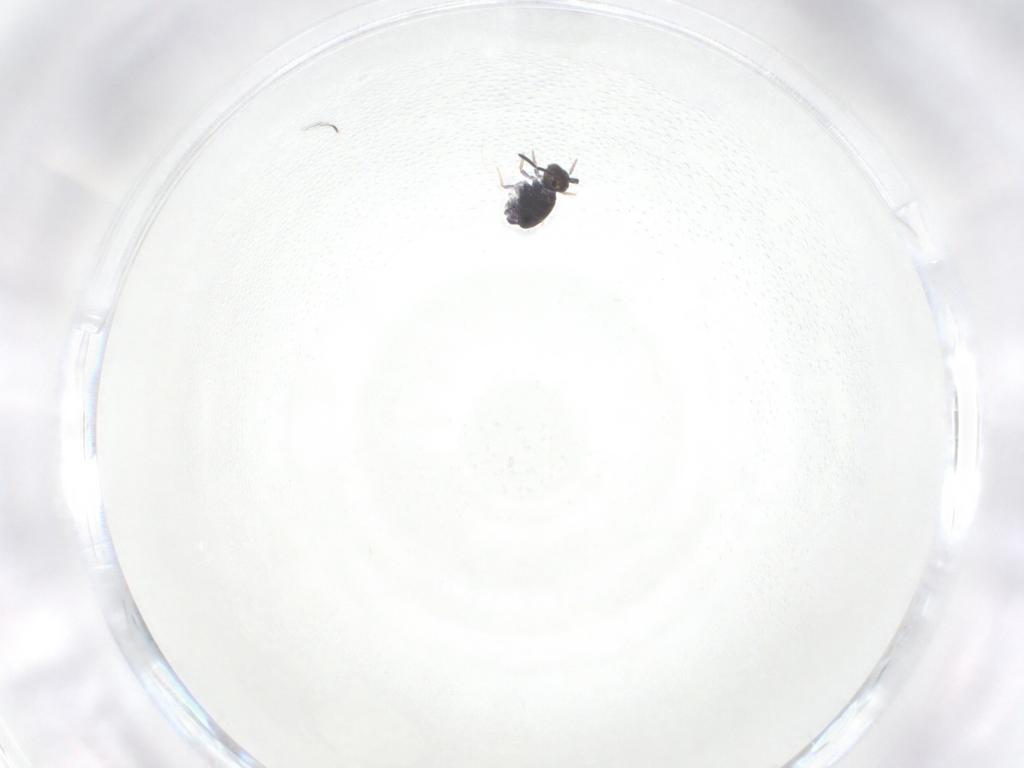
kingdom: Animalia
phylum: Arthropoda
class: Collembola
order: Symphypleona
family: Katiannidae
